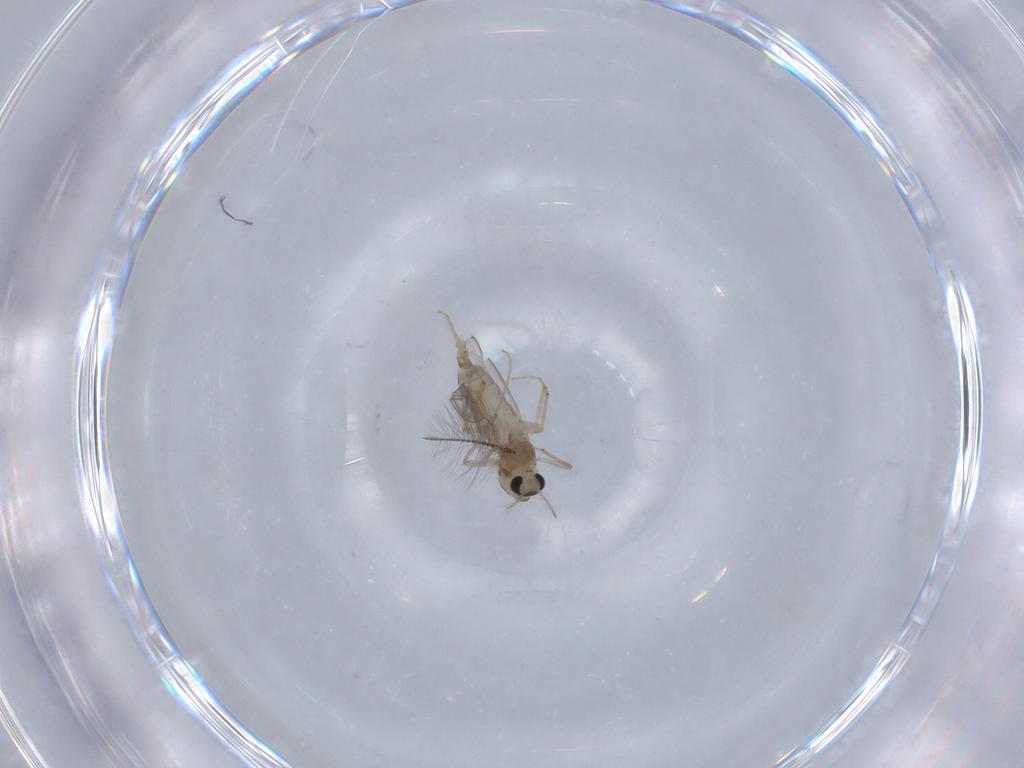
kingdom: Animalia
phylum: Arthropoda
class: Insecta
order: Diptera
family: Chironomidae
